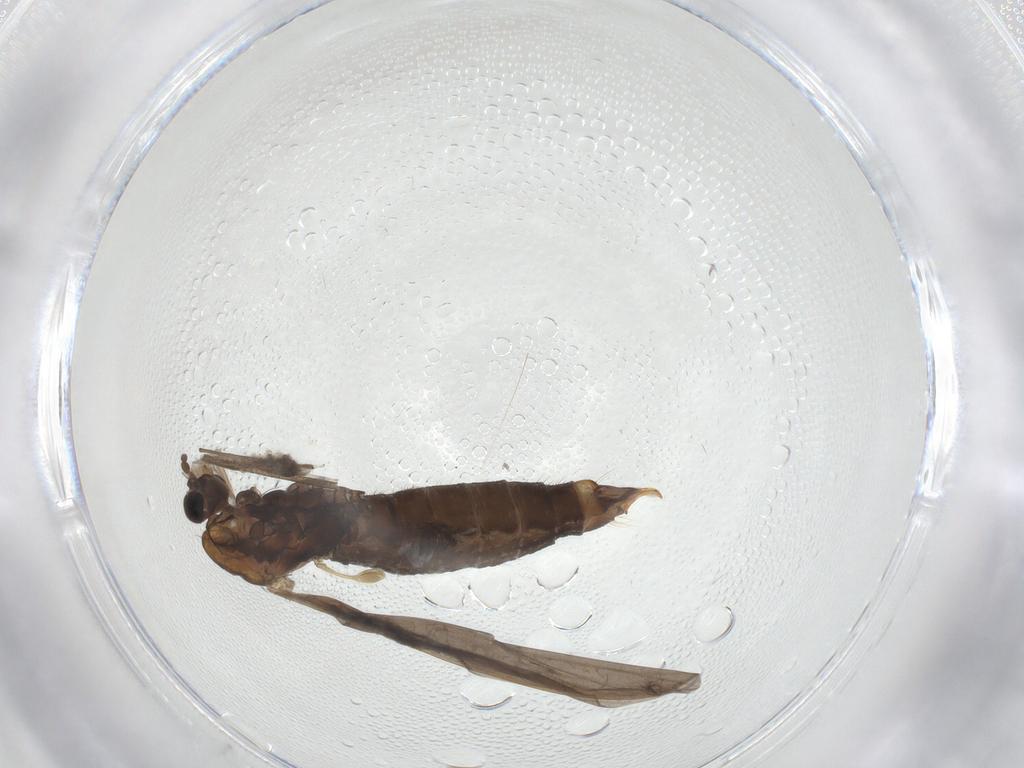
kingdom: Animalia
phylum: Arthropoda
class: Insecta
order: Diptera
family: Limoniidae
